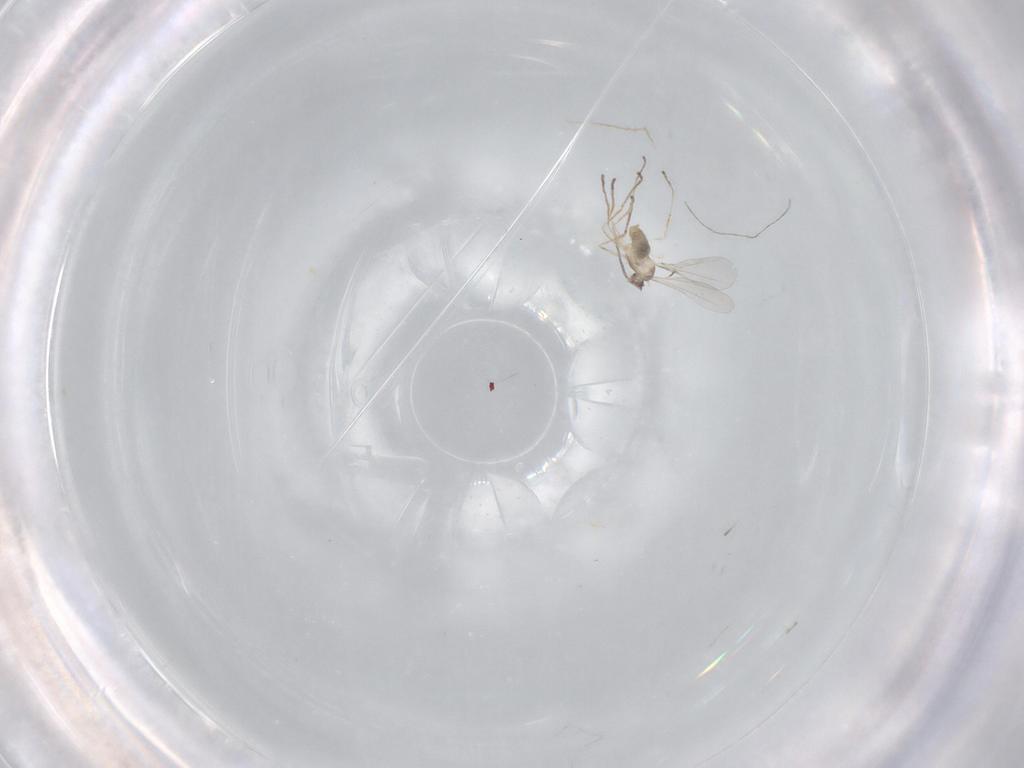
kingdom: Animalia
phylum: Arthropoda
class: Insecta
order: Diptera
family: Cecidomyiidae
